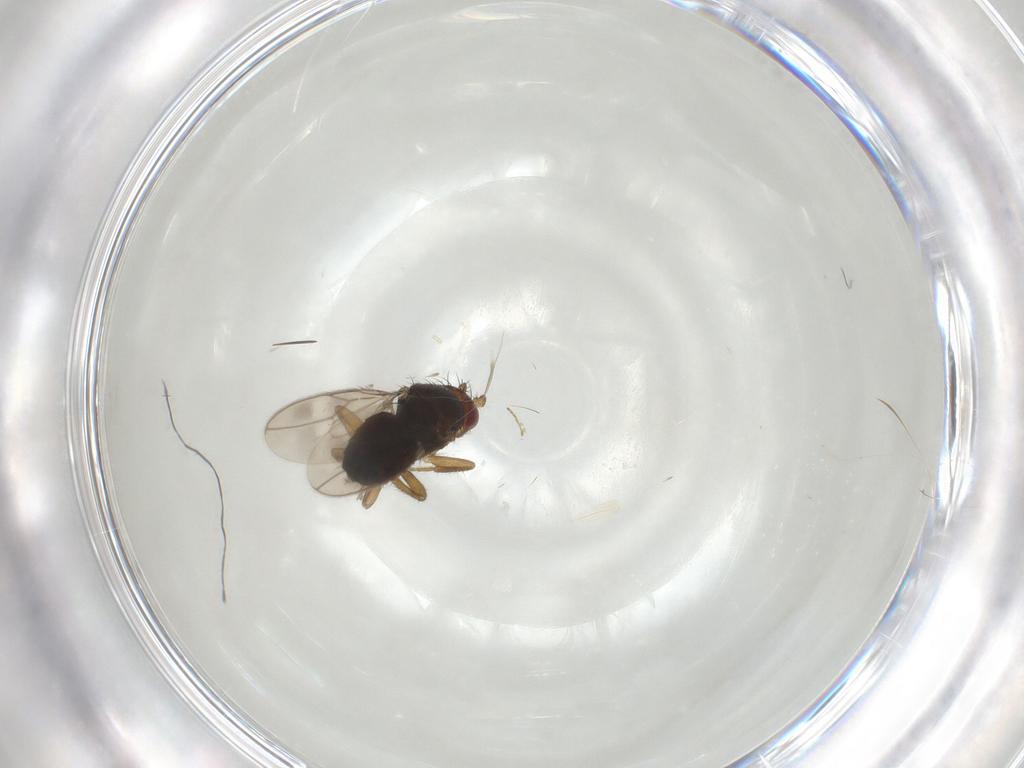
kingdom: Animalia
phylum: Arthropoda
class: Insecta
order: Diptera
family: Sphaeroceridae
